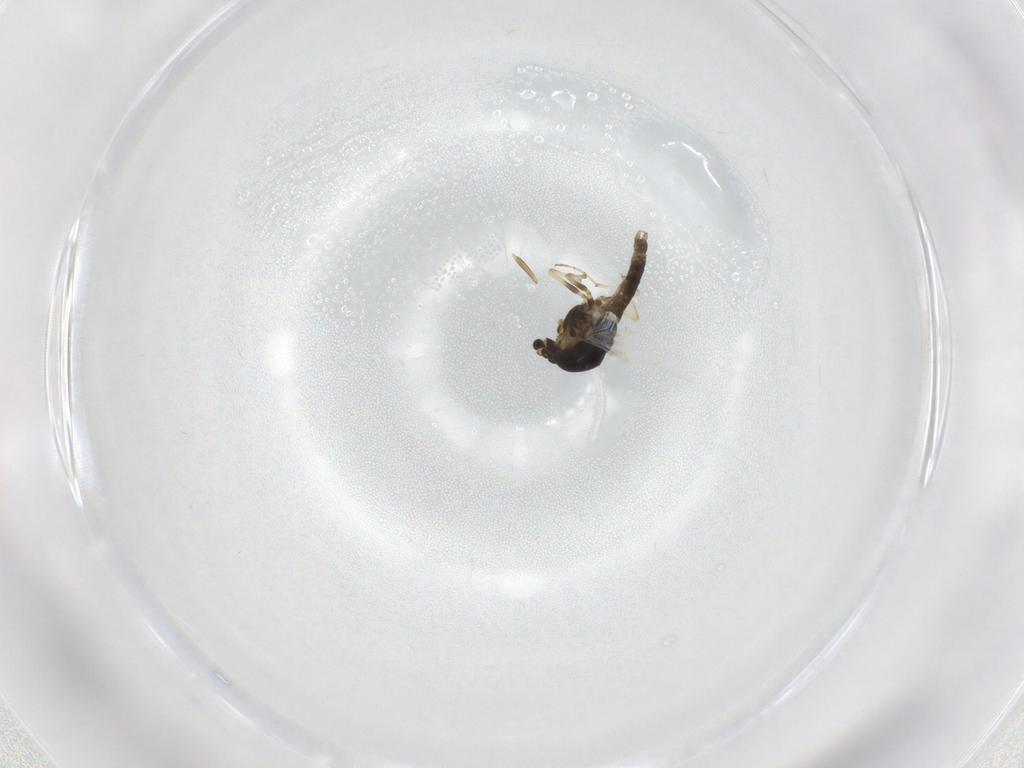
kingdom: Animalia
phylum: Arthropoda
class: Insecta
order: Diptera
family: Chironomidae
